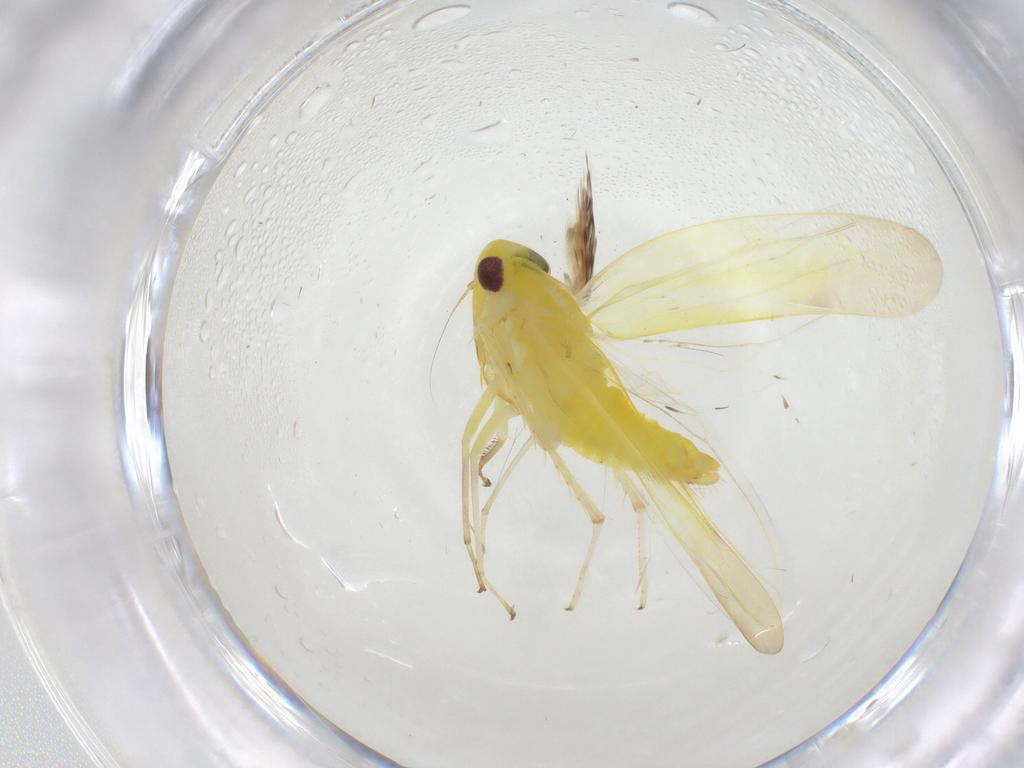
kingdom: Animalia
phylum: Arthropoda
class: Insecta
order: Hemiptera
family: Cicadellidae
